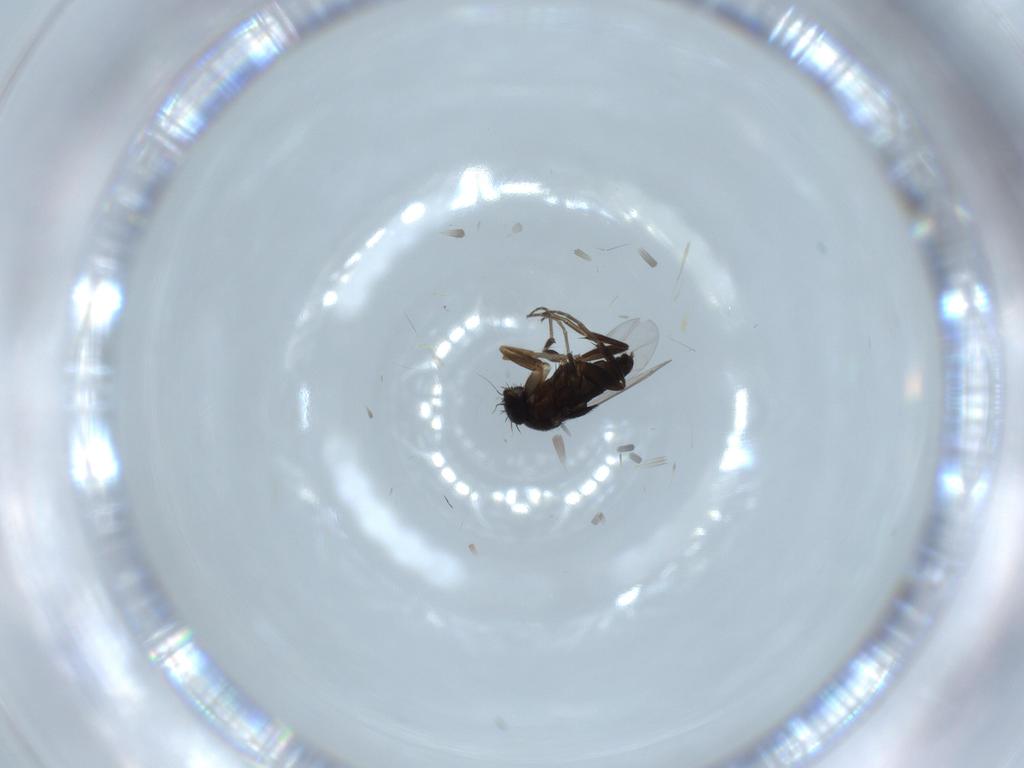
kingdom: Animalia
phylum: Arthropoda
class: Insecta
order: Diptera
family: Phoridae
